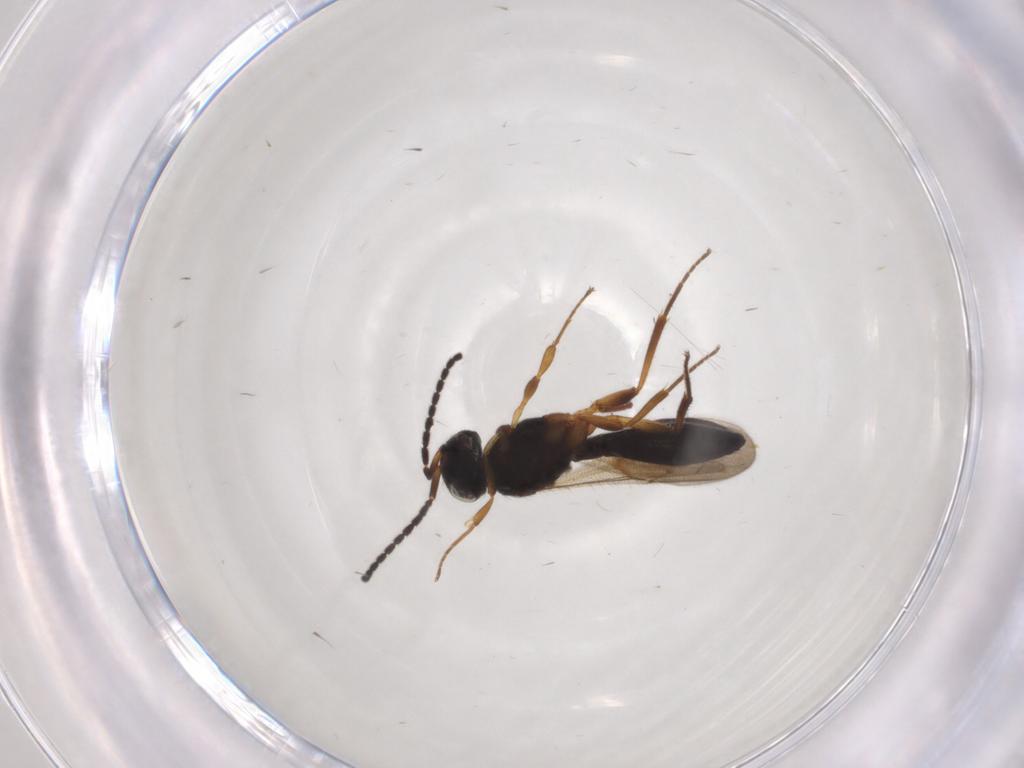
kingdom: Animalia
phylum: Arthropoda
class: Insecta
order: Hymenoptera
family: Scelionidae
